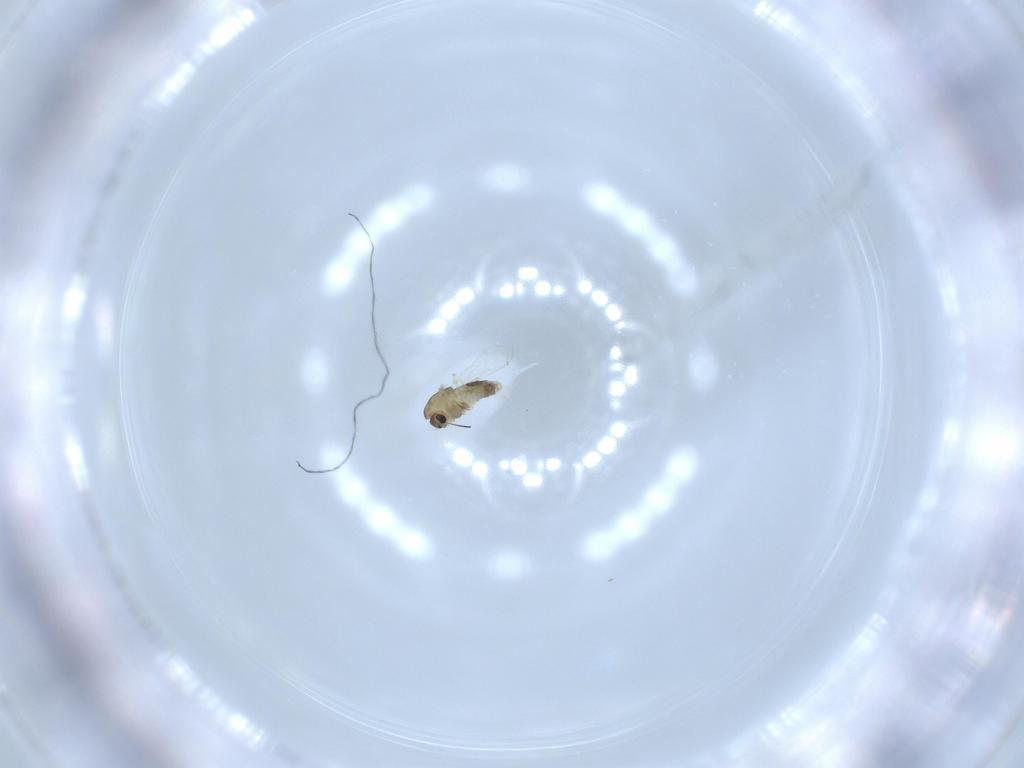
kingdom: Animalia
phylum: Arthropoda
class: Insecta
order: Diptera
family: Chironomidae
